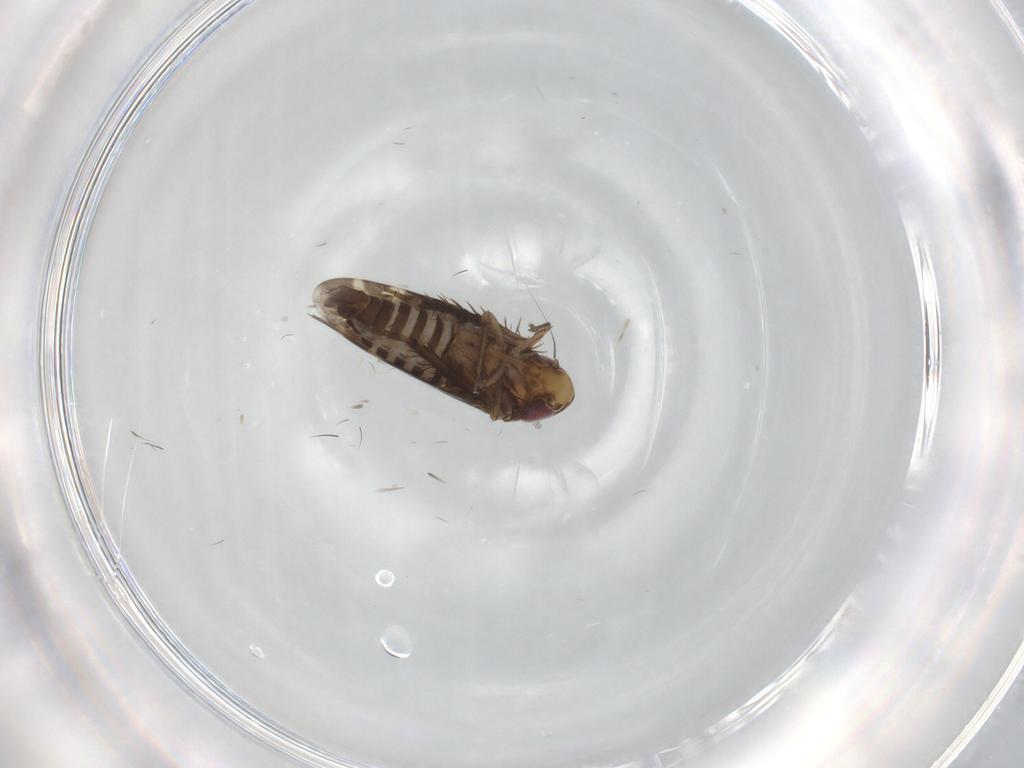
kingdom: Animalia
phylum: Arthropoda
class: Insecta
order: Hemiptera
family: Cicadellidae
